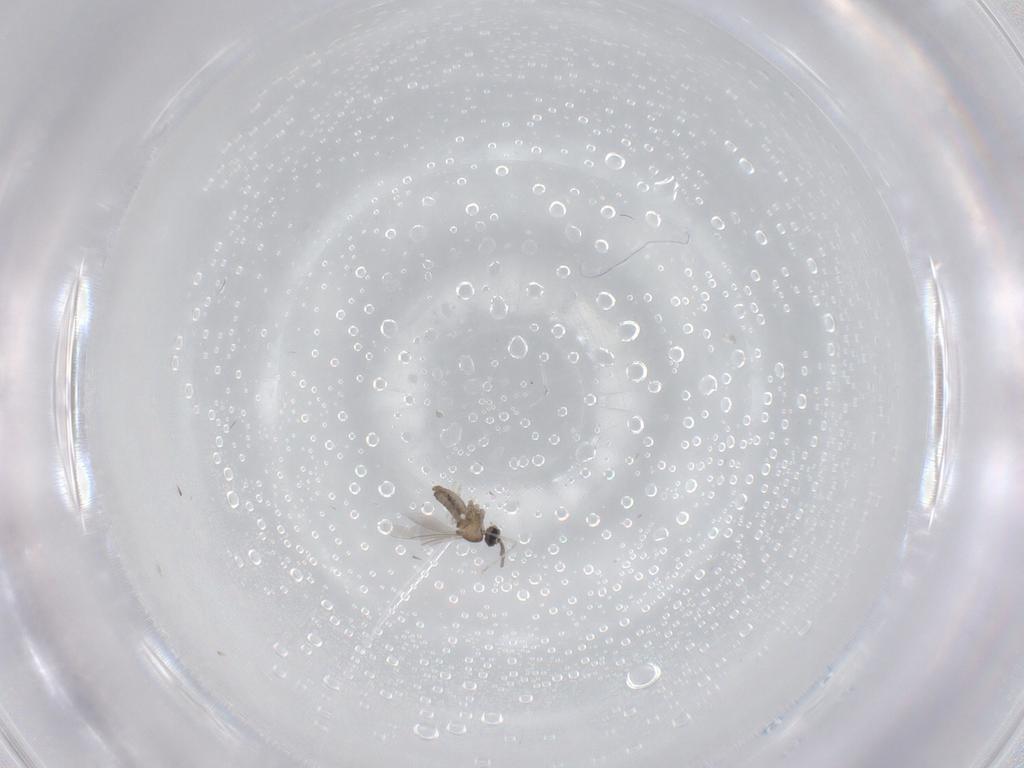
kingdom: Animalia
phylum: Arthropoda
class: Insecta
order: Diptera
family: Cecidomyiidae
